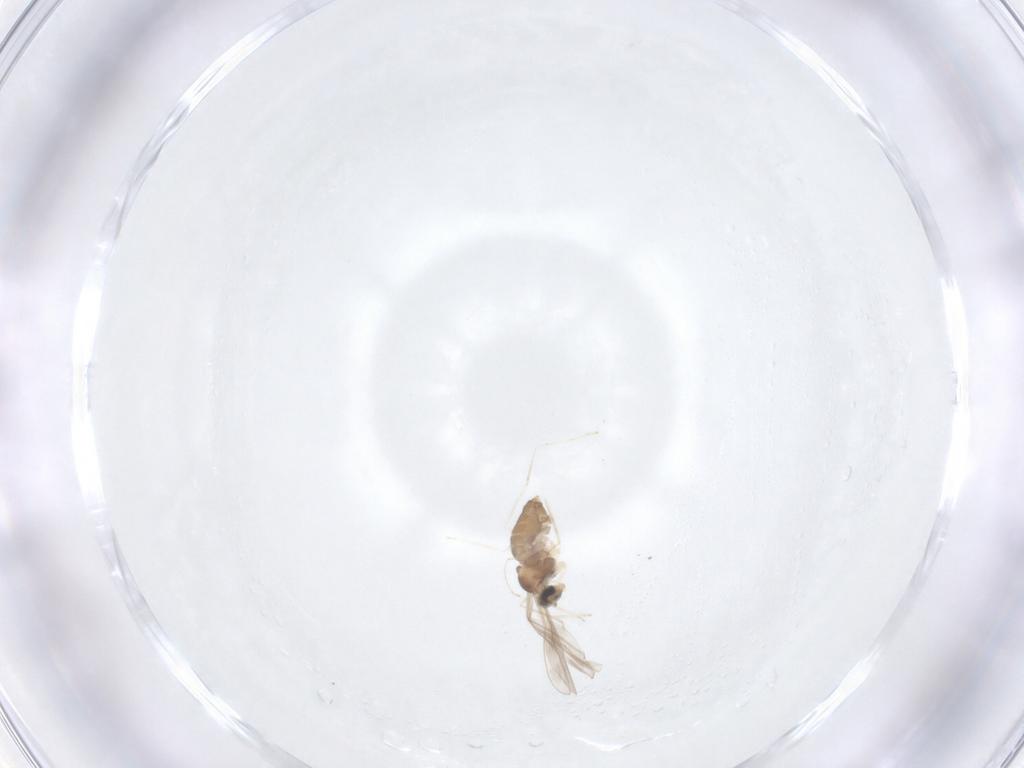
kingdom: Animalia
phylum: Arthropoda
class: Insecta
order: Diptera
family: Cecidomyiidae
